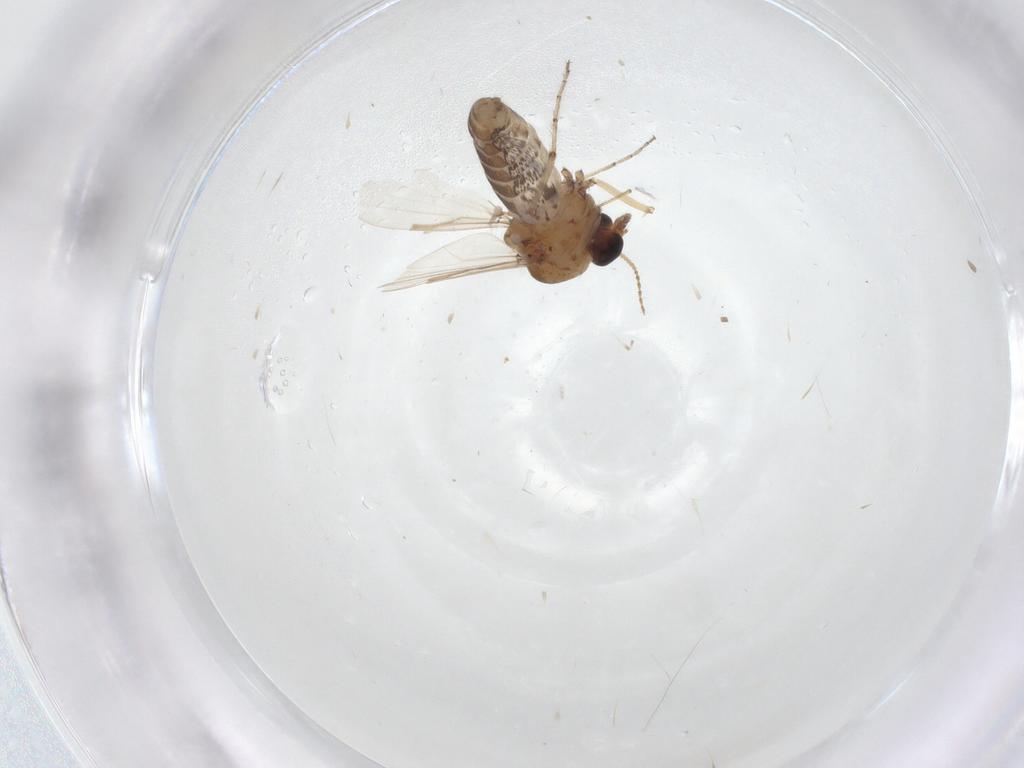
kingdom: Animalia
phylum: Arthropoda
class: Insecta
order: Diptera
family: Ceratopogonidae
